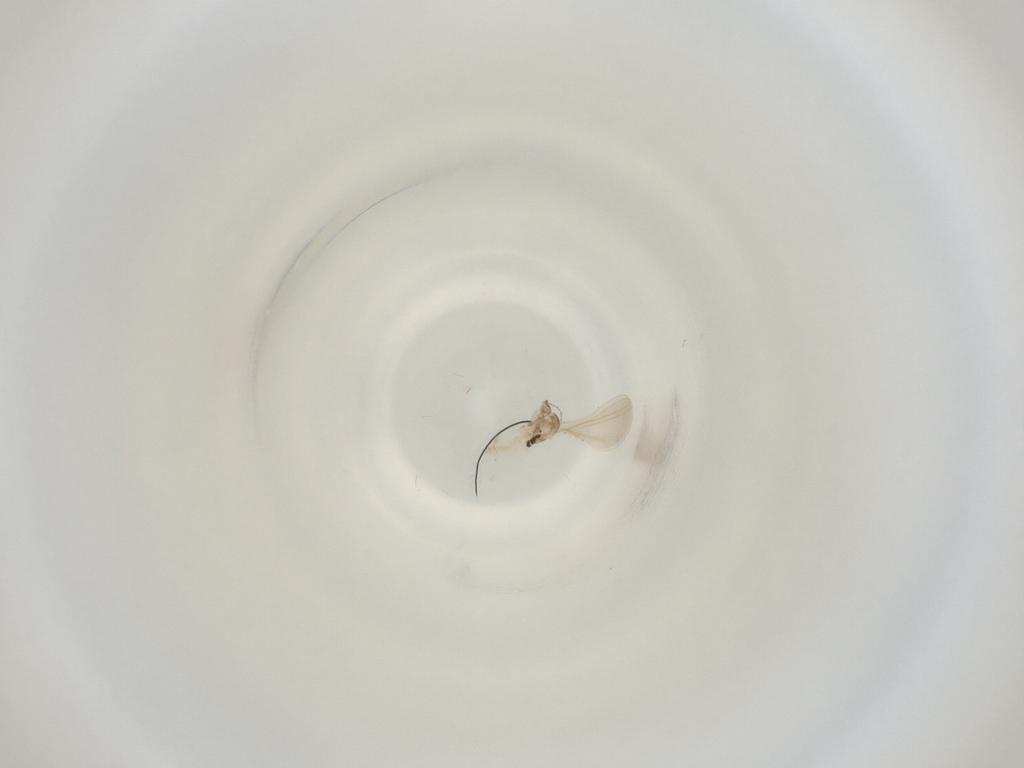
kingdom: Animalia
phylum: Arthropoda
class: Insecta
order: Diptera
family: Cecidomyiidae
